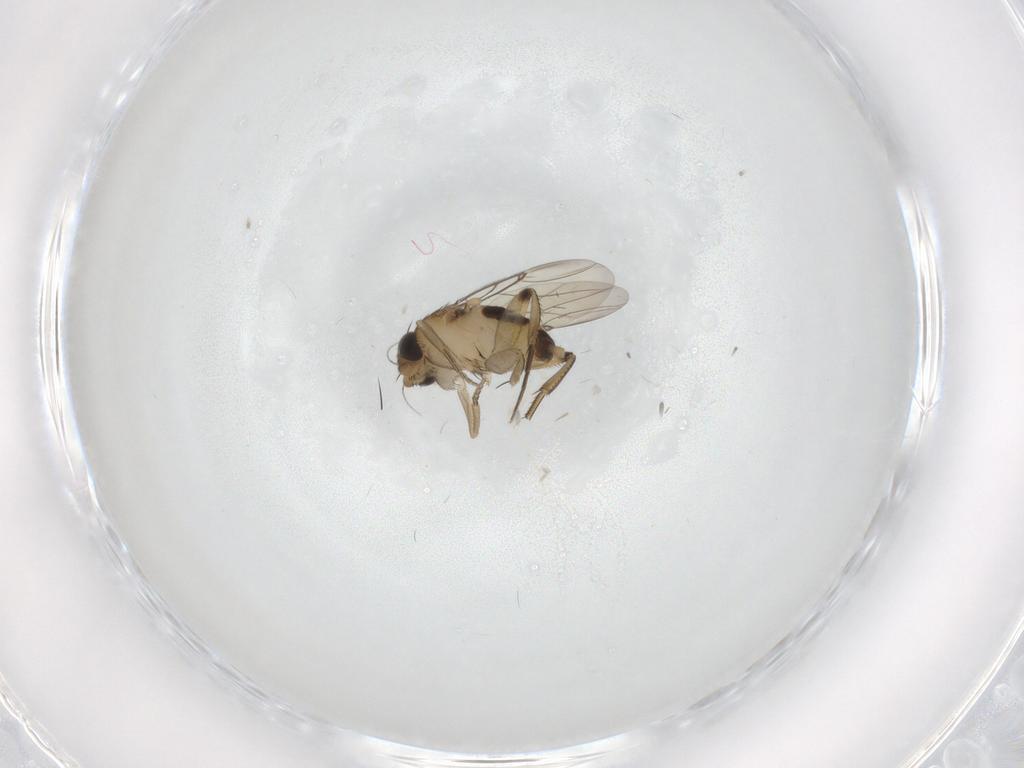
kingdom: Animalia
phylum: Arthropoda
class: Insecta
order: Diptera
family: Phoridae
